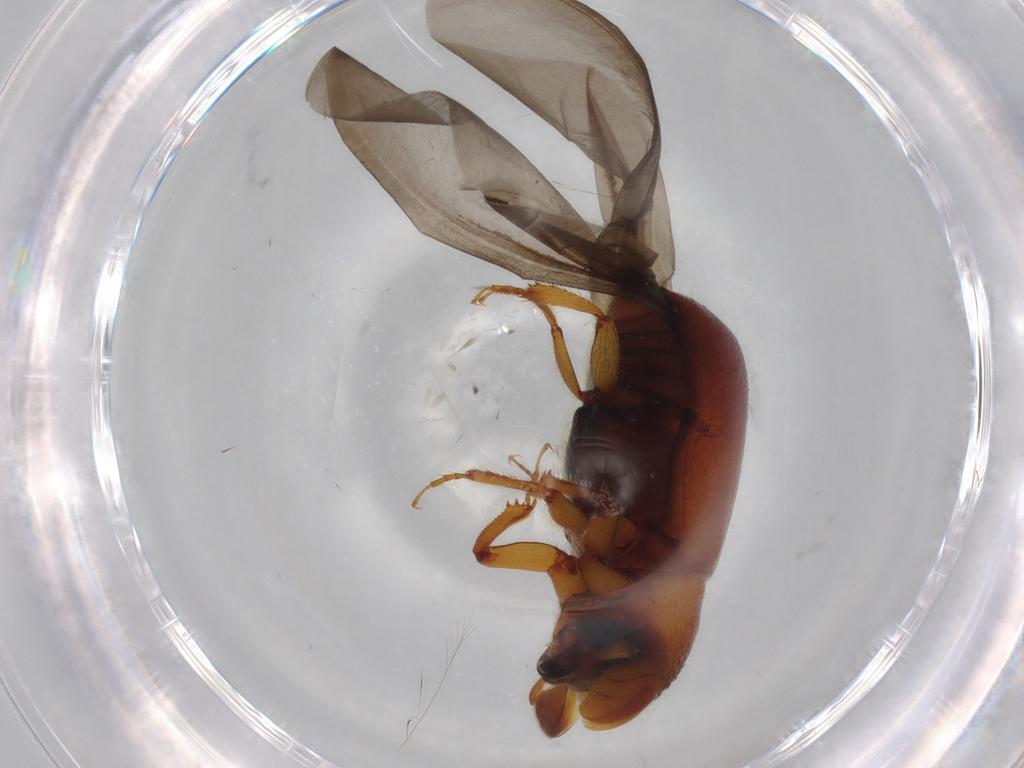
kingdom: Animalia
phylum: Arthropoda
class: Insecta
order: Coleoptera
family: Curculionidae
